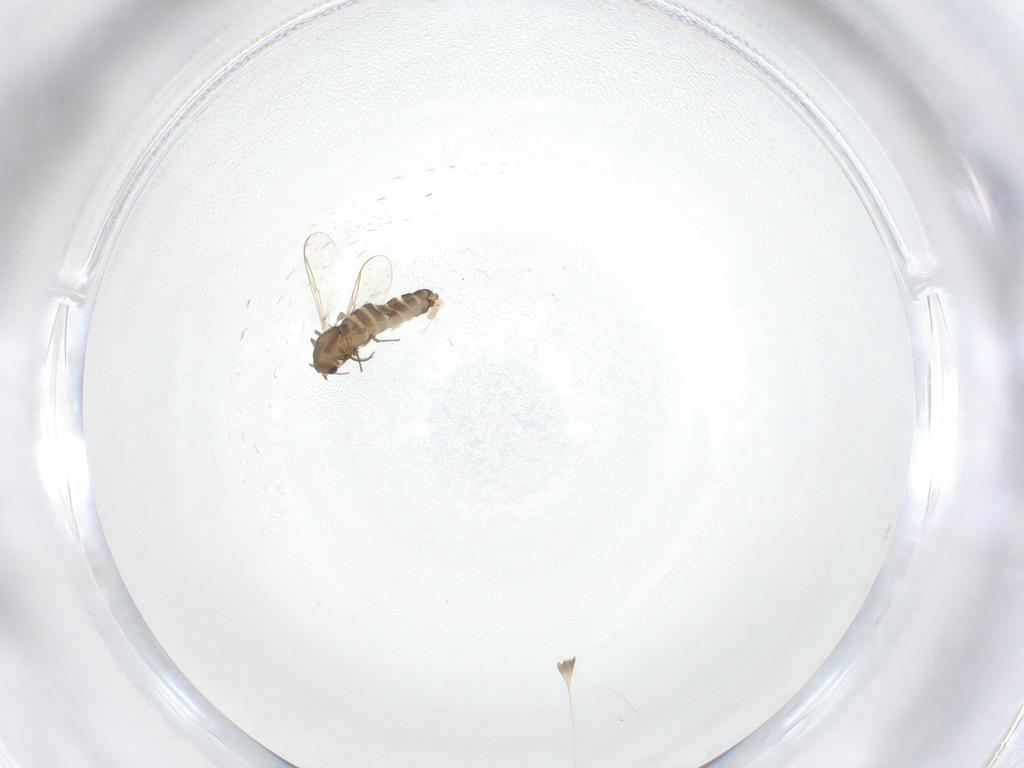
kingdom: Animalia
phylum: Arthropoda
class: Insecta
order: Diptera
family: Chironomidae
